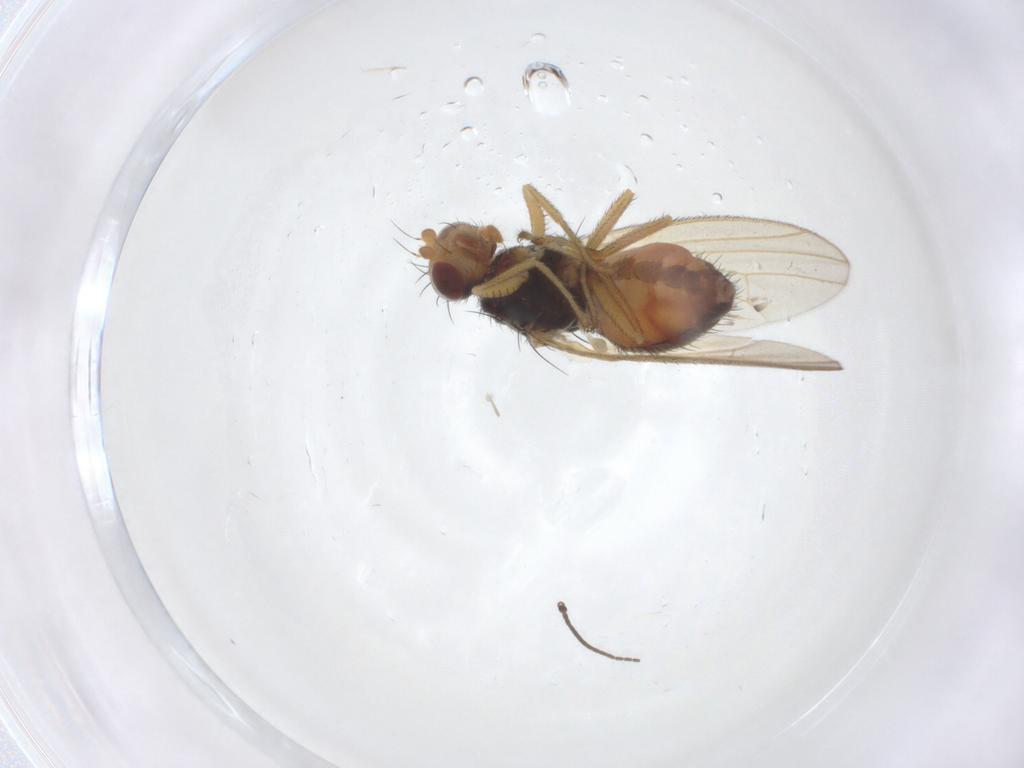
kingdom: Animalia
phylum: Arthropoda
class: Insecta
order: Diptera
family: Heleomyzidae
